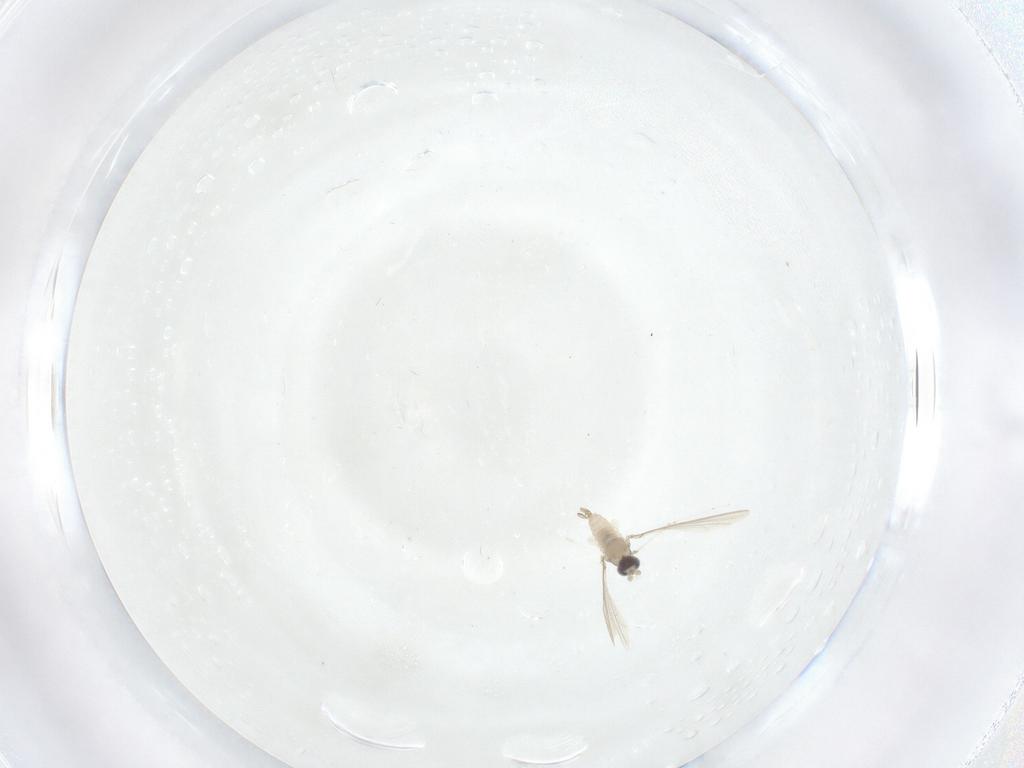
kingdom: Animalia
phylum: Arthropoda
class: Insecta
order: Diptera
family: Cecidomyiidae
